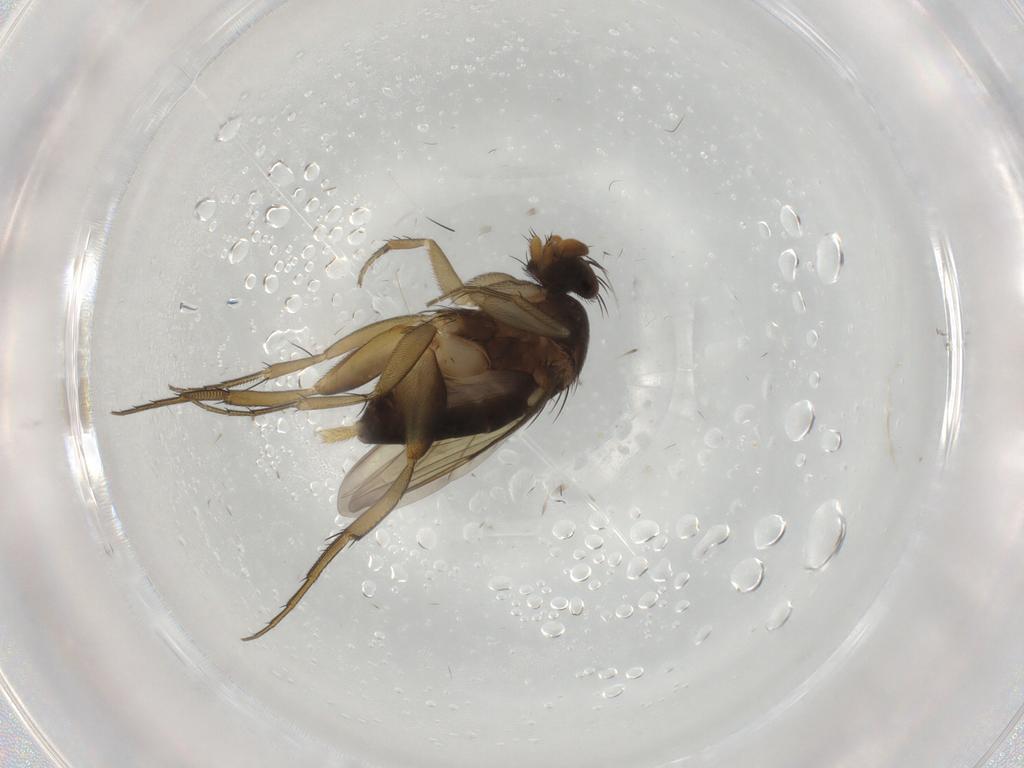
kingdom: Animalia
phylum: Arthropoda
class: Insecta
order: Diptera
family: Phoridae
